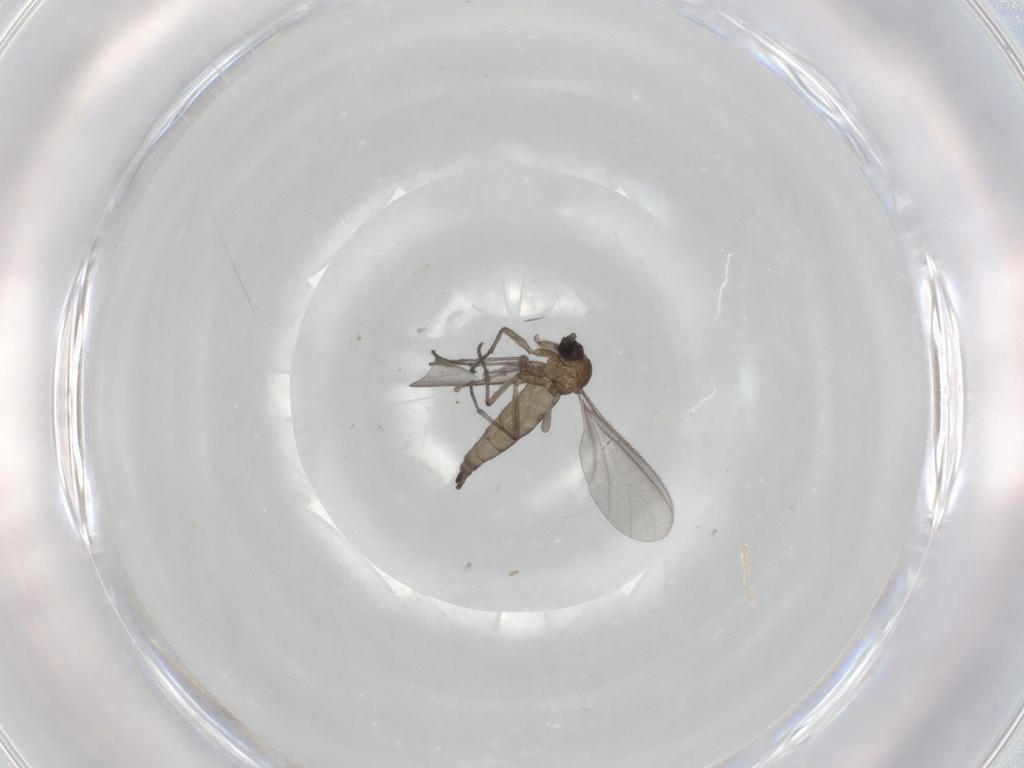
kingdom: Animalia
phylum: Arthropoda
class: Insecta
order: Diptera
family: Sciaridae
